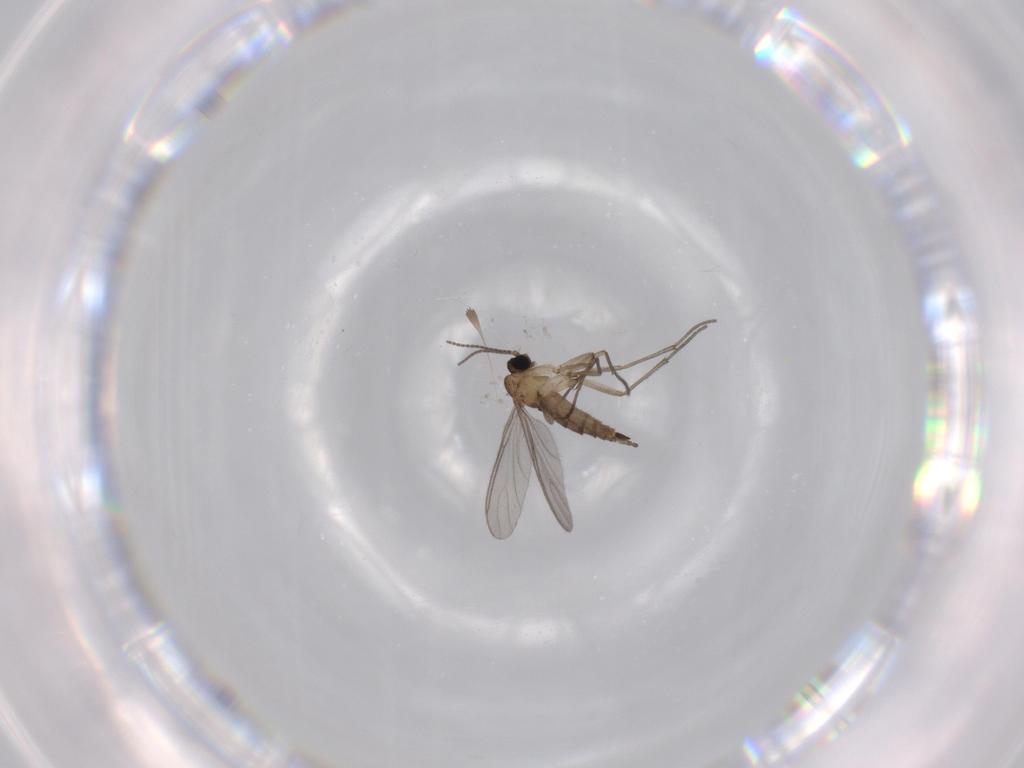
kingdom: Animalia
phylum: Arthropoda
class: Insecta
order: Diptera
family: Sciaridae
